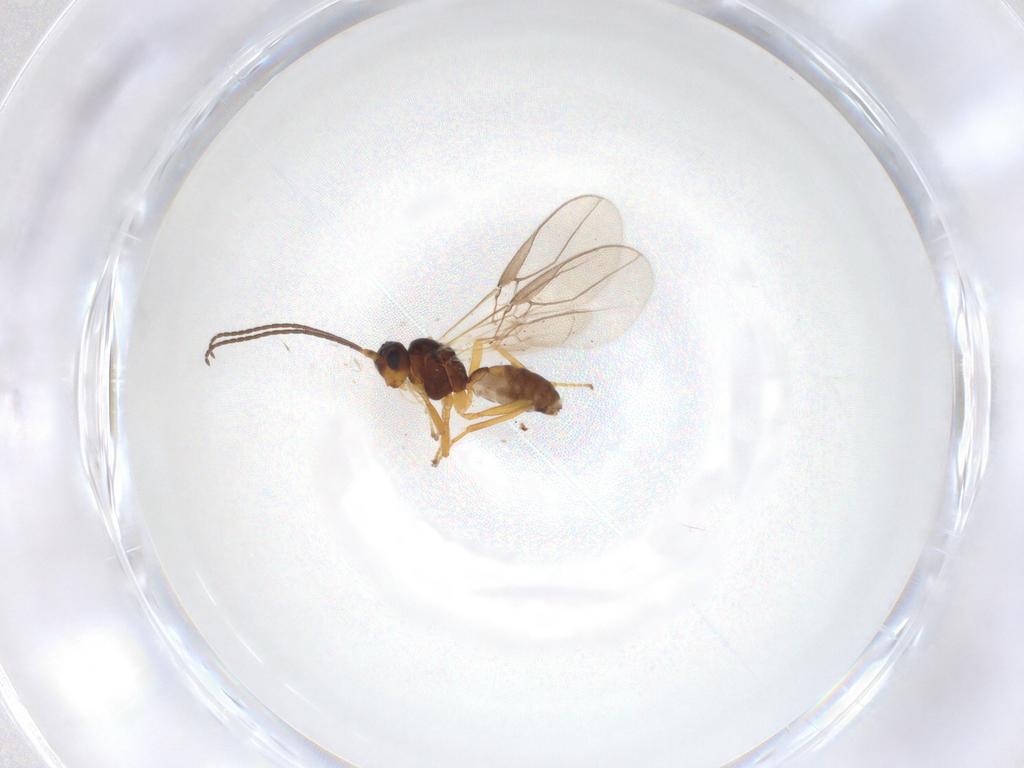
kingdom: Animalia
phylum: Arthropoda
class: Insecta
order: Hymenoptera
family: Braconidae
